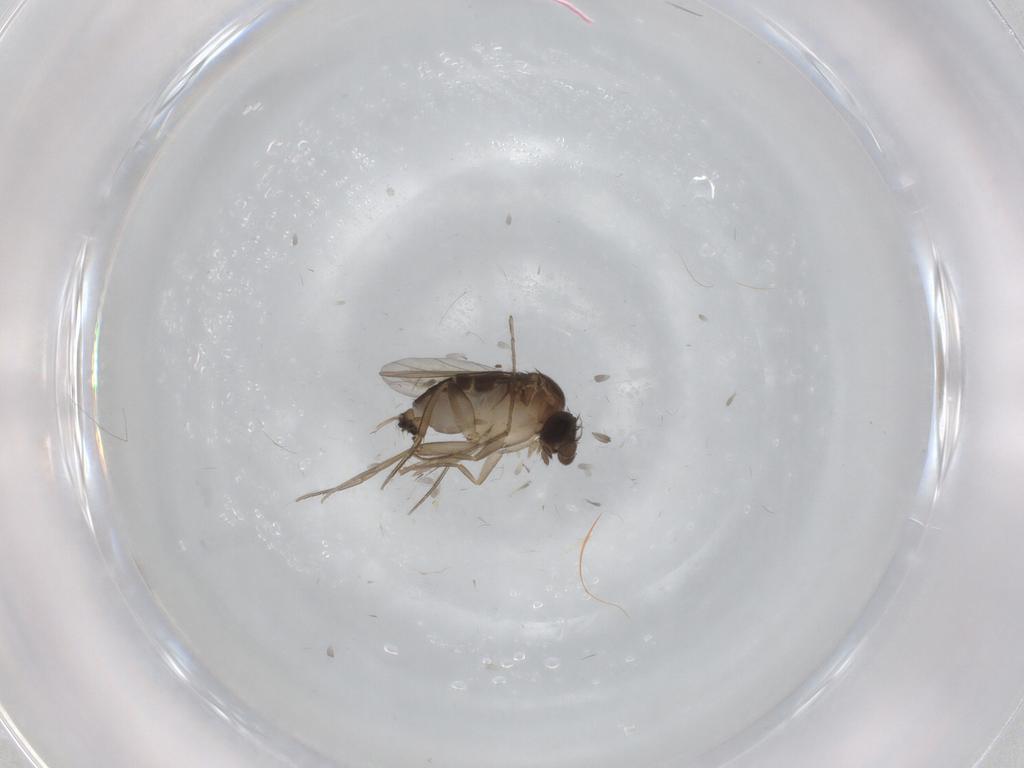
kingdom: Animalia
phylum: Arthropoda
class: Insecta
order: Diptera
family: Phoridae
